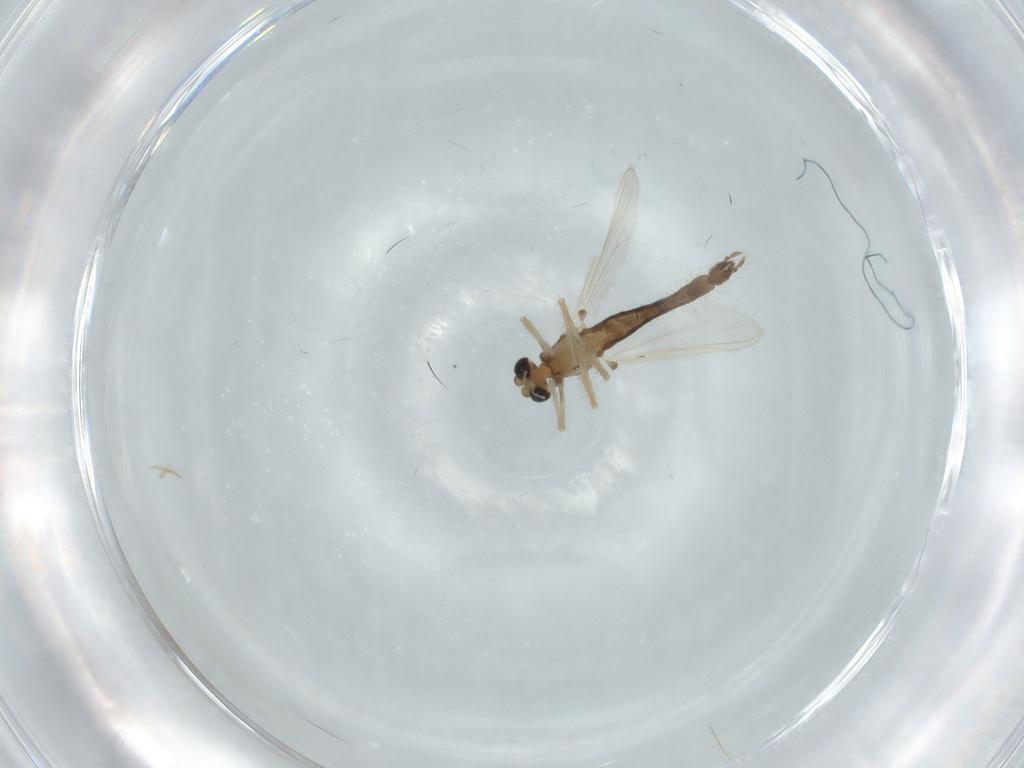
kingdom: Animalia
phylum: Arthropoda
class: Insecta
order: Diptera
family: Chironomidae
